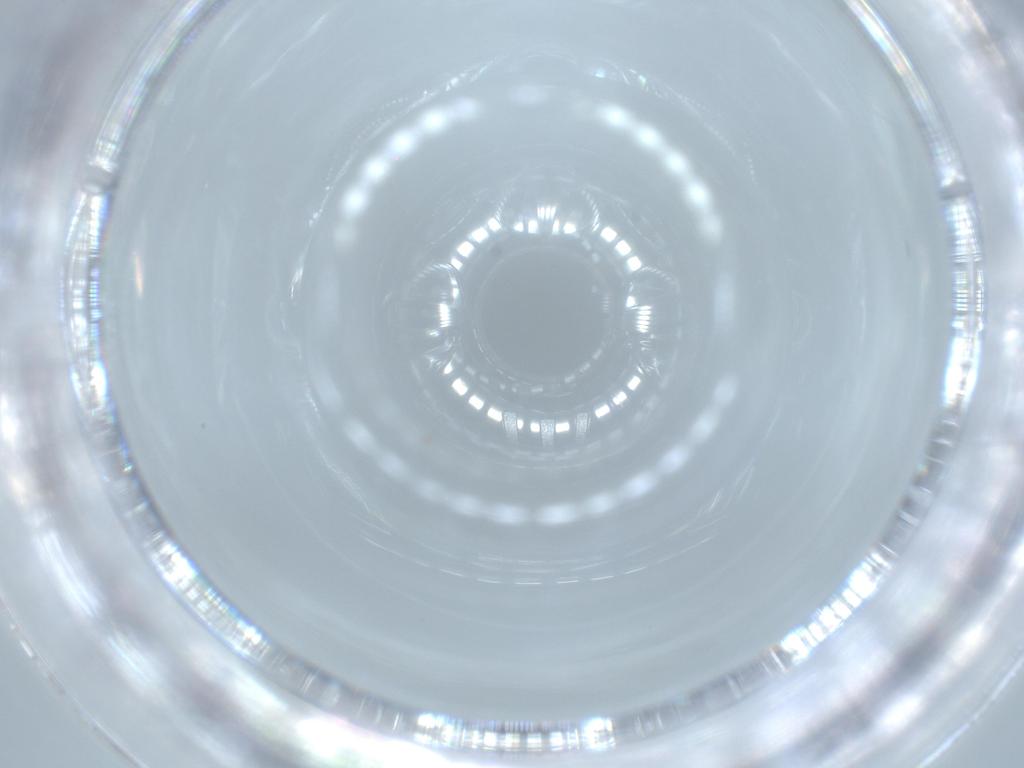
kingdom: Animalia
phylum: Arthropoda
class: Insecta
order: Diptera
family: Phoridae
